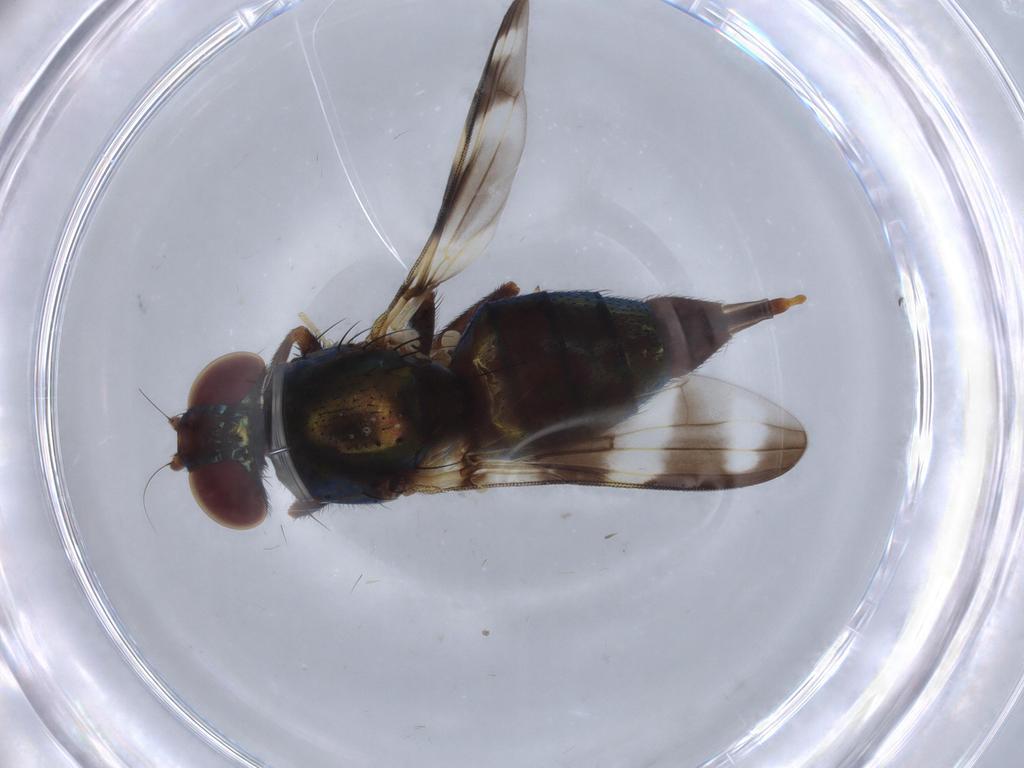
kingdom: Animalia
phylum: Arthropoda
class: Insecta
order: Diptera
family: Ulidiidae
